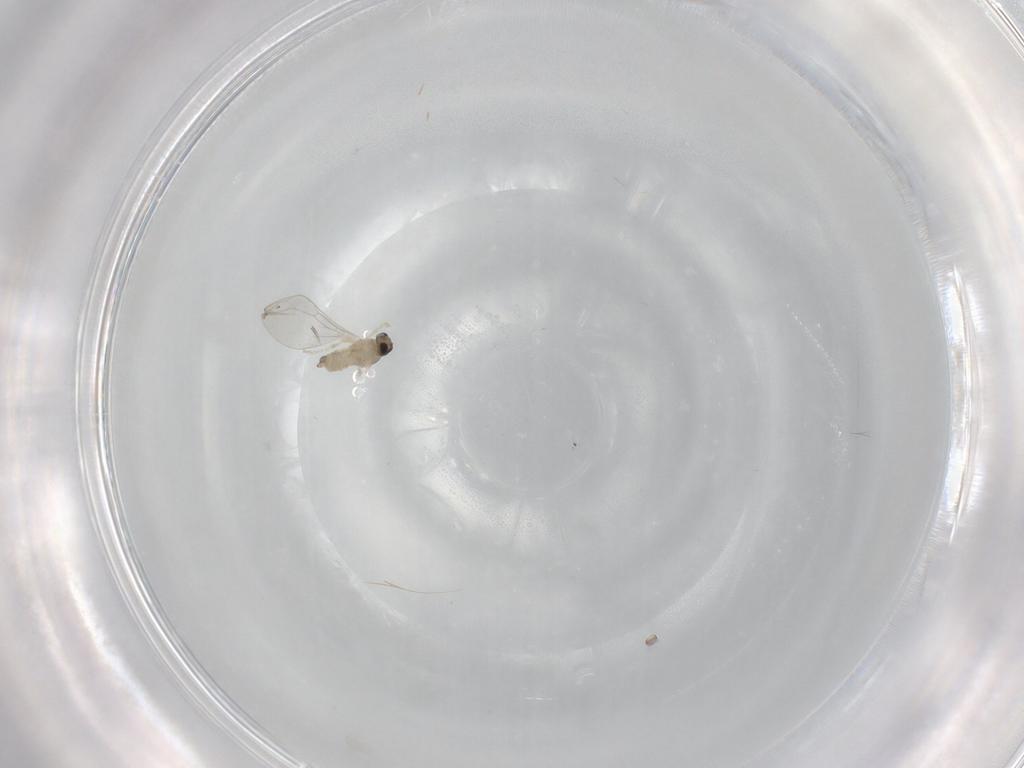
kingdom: Animalia
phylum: Arthropoda
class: Insecta
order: Diptera
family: Cecidomyiidae
